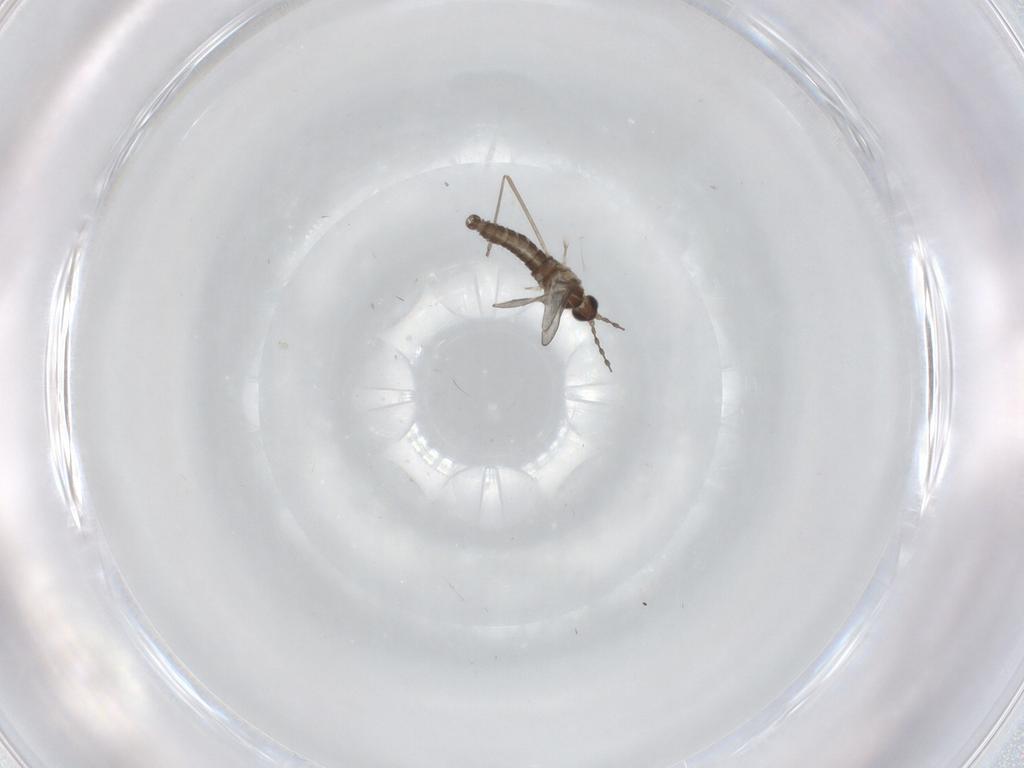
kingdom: Animalia
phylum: Arthropoda
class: Insecta
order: Diptera
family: Cecidomyiidae
